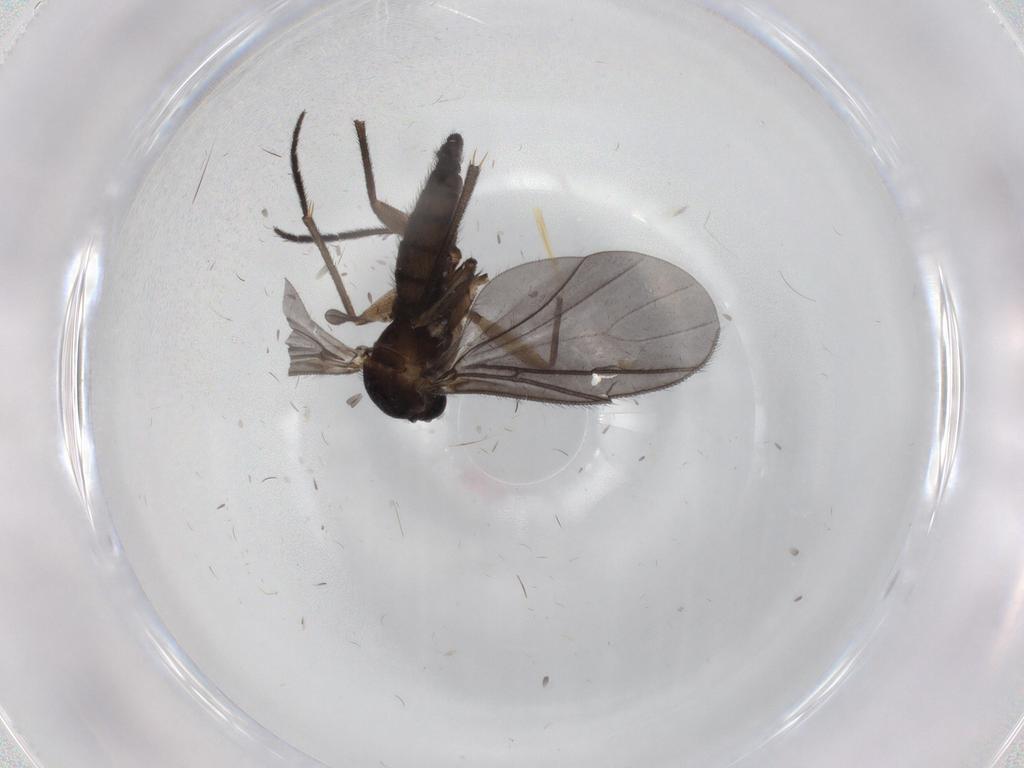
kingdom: Animalia
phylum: Arthropoda
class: Insecta
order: Diptera
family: Sciaridae
